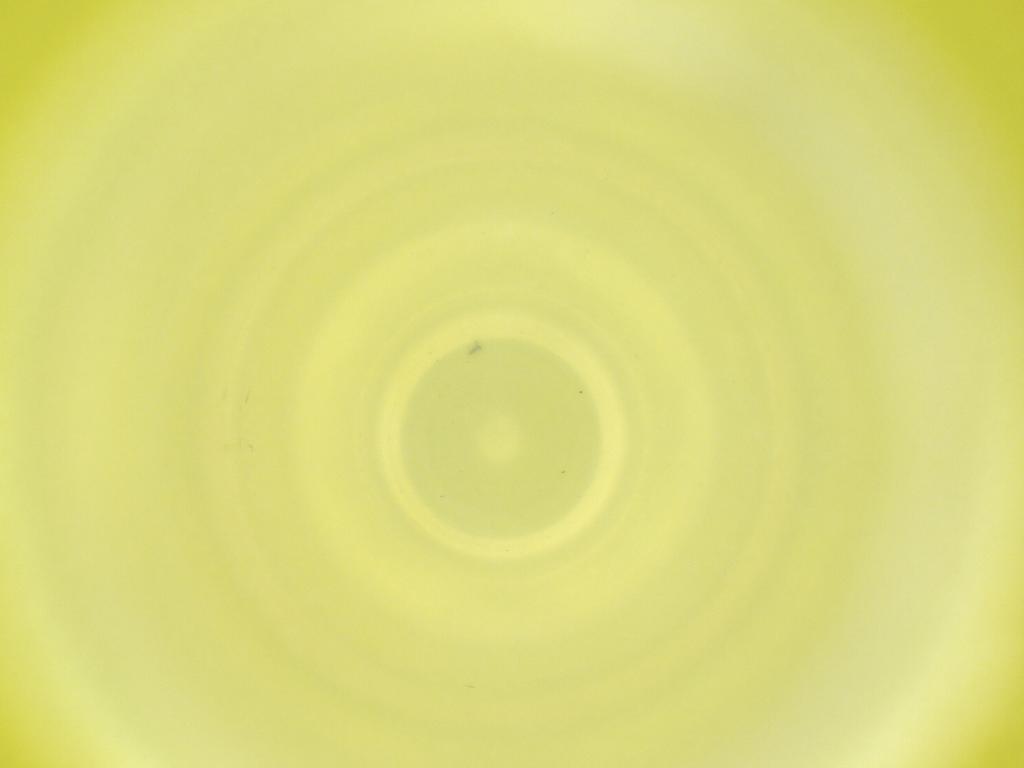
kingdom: Animalia
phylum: Arthropoda
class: Insecta
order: Diptera
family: Cecidomyiidae
